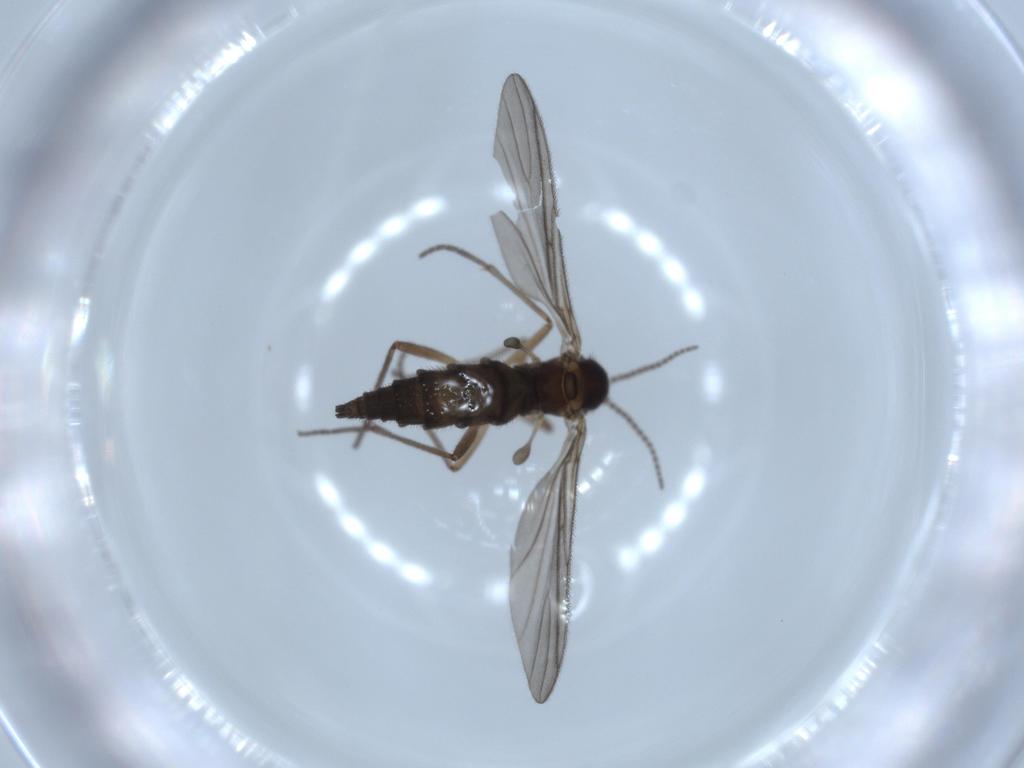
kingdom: Animalia
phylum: Arthropoda
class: Insecta
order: Diptera
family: Sciaridae
